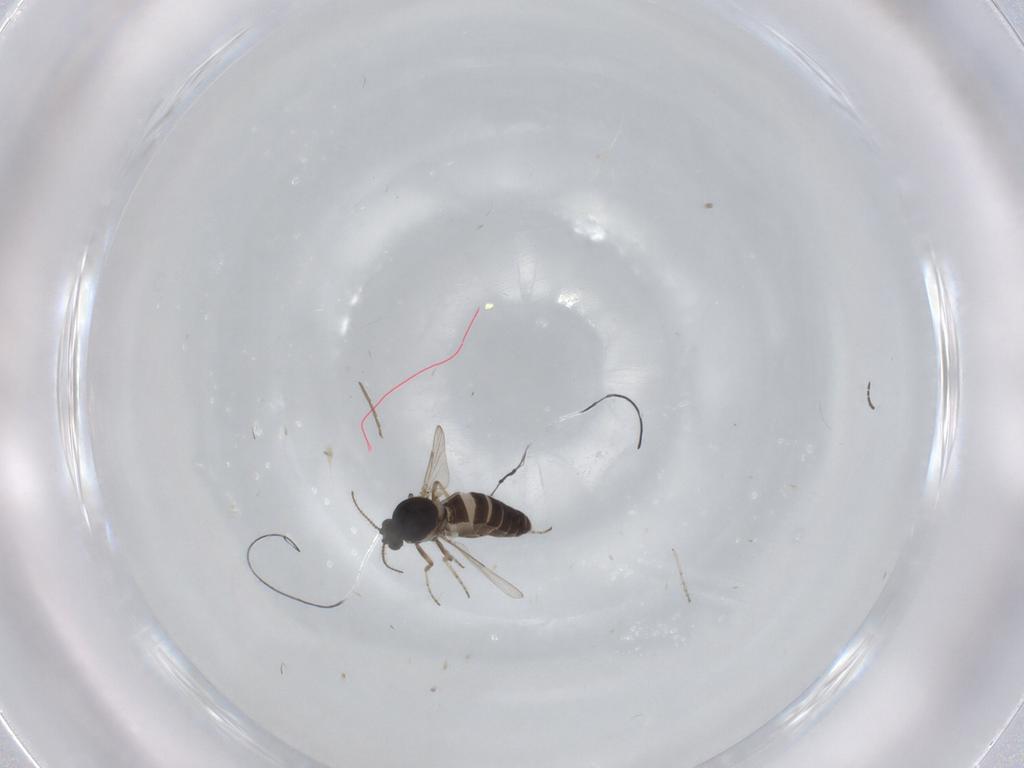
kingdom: Animalia
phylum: Arthropoda
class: Insecta
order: Diptera
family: Ceratopogonidae
